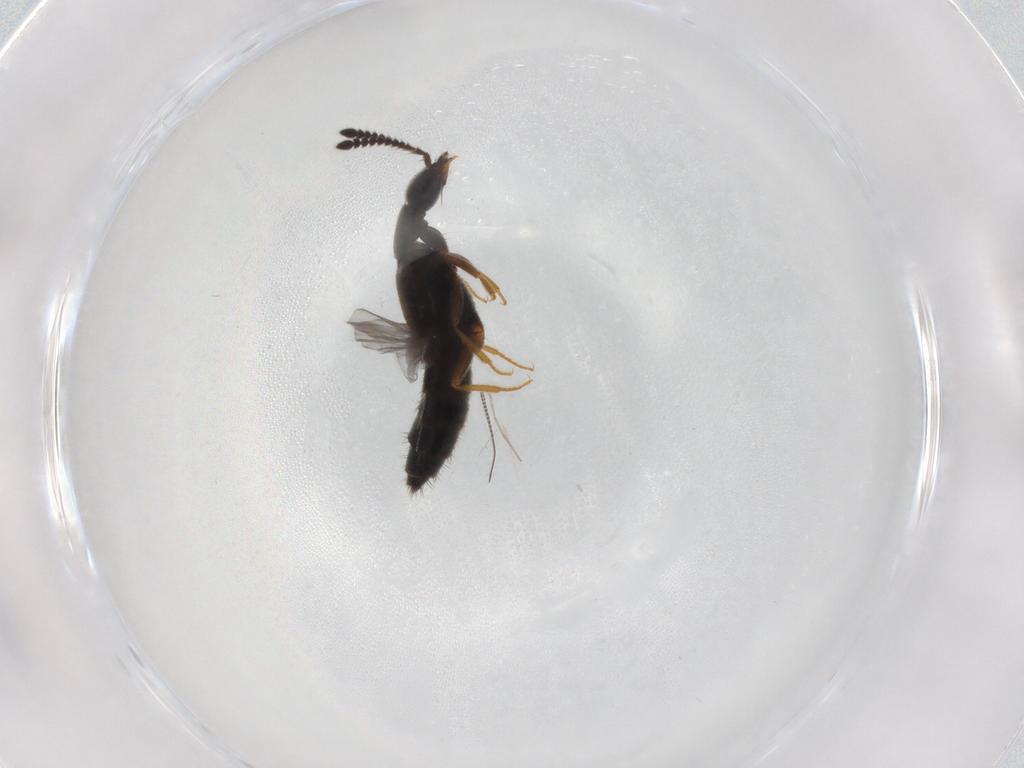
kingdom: Animalia
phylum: Arthropoda
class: Insecta
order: Coleoptera
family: Staphylinidae
